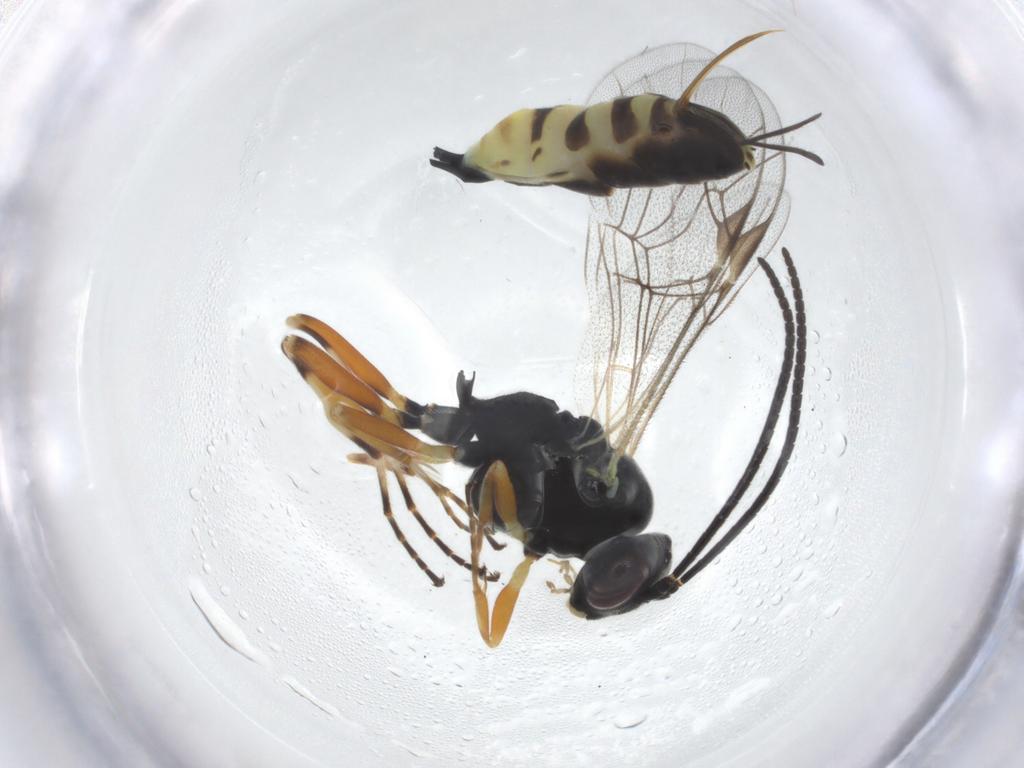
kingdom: Animalia
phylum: Arthropoda
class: Insecta
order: Hymenoptera
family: Ichneumonidae
